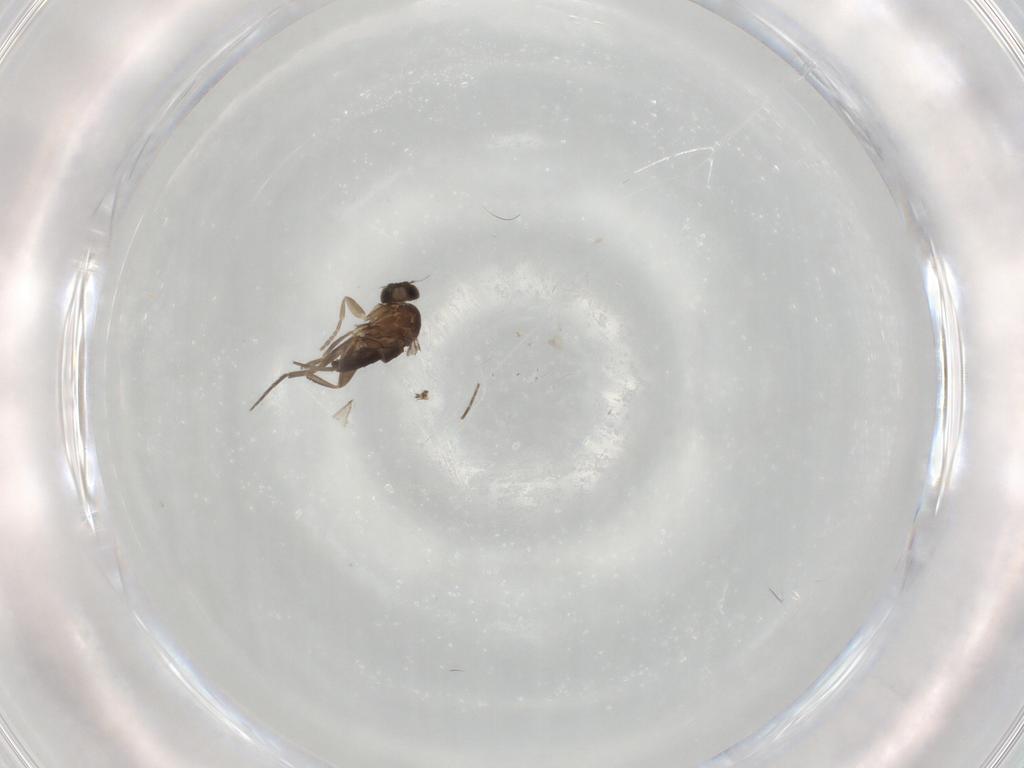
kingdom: Animalia
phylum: Arthropoda
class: Insecta
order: Diptera
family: Phoridae
